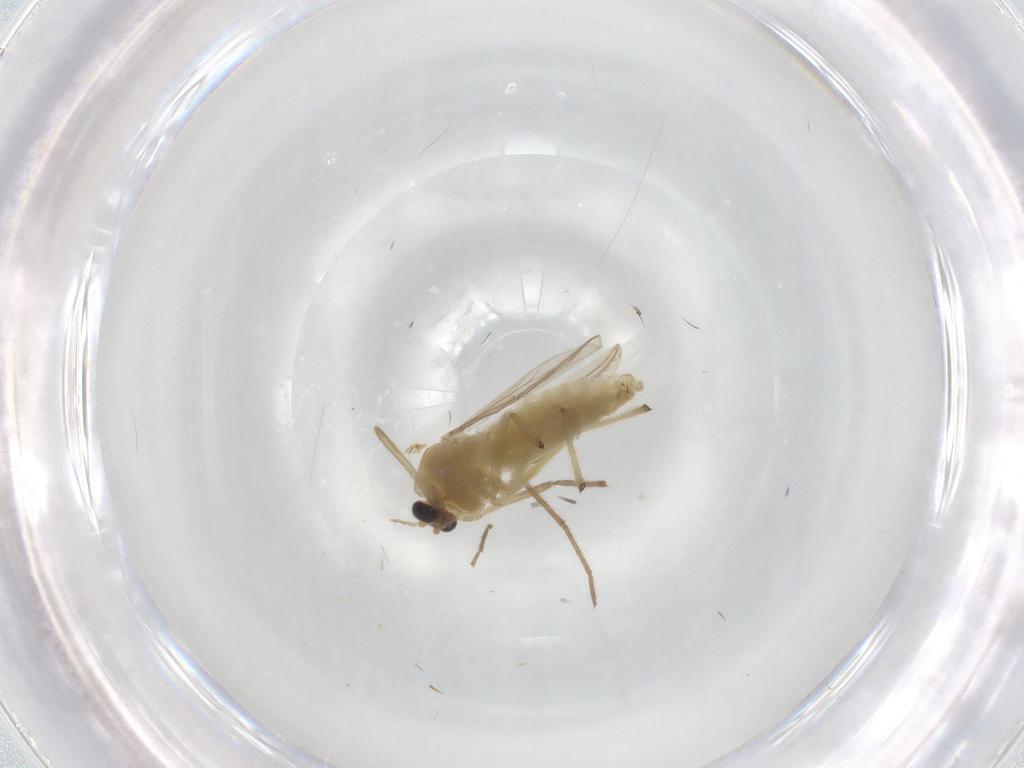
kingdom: Animalia
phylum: Arthropoda
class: Insecta
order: Diptera
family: Chironomidae
